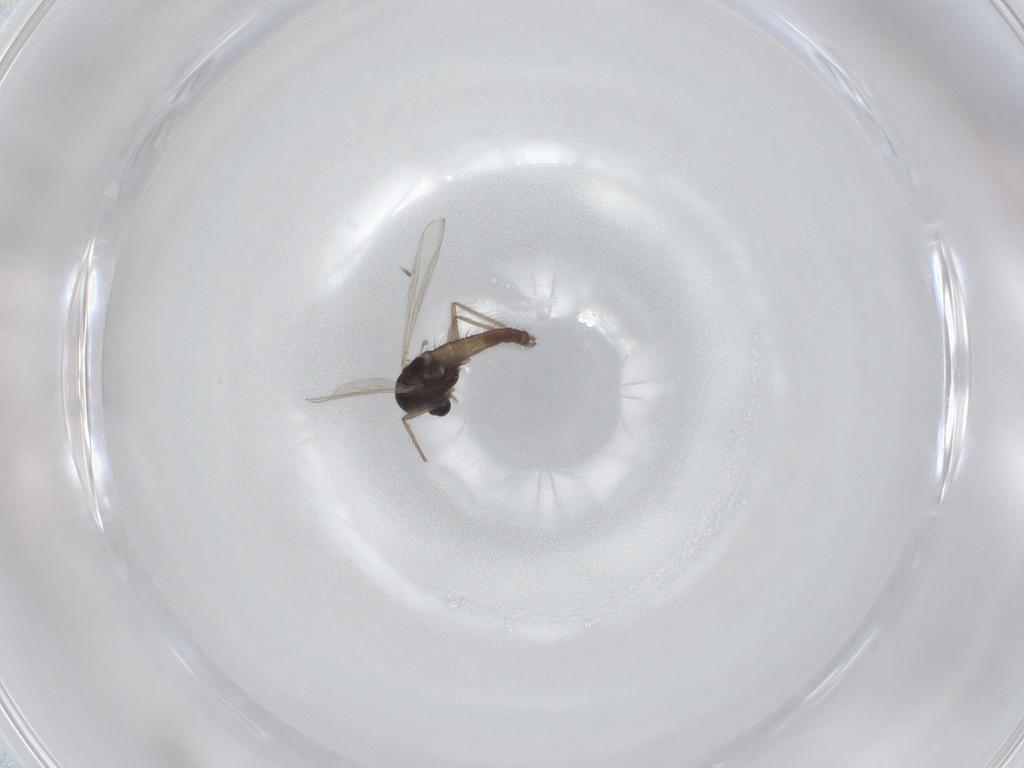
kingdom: Animalia
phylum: Arthropoda
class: Insecta
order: Diptera
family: Chironomidae
